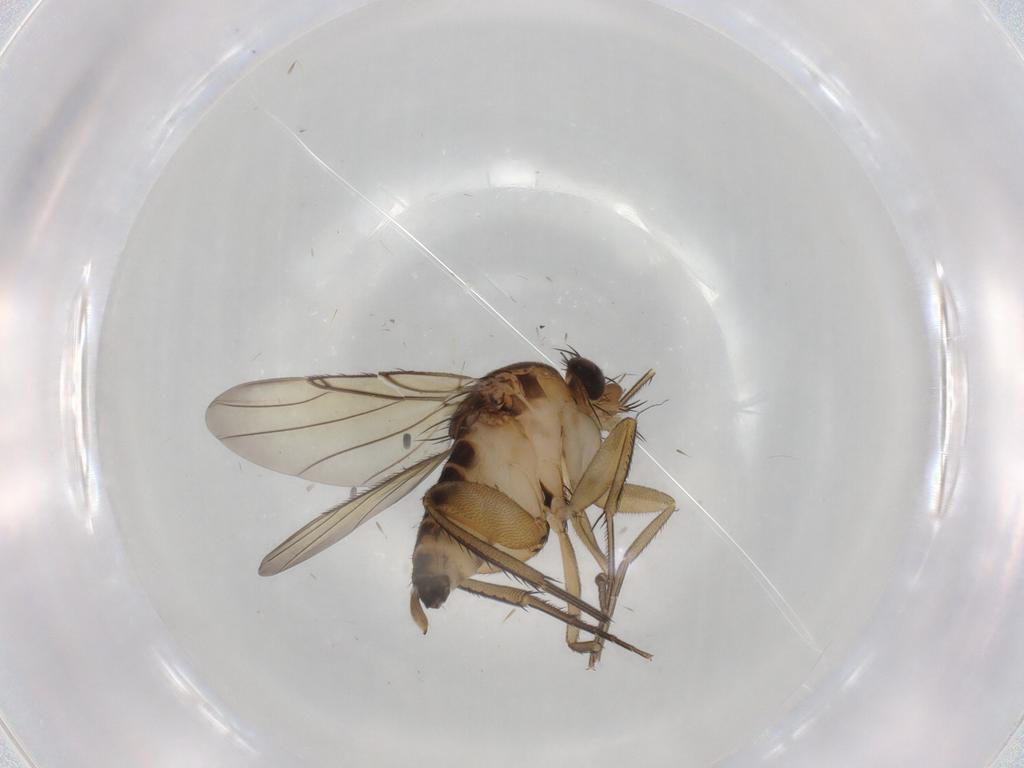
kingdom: Animalia
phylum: Arthropoda
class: Insecta
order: Diptera
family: Phoridae
